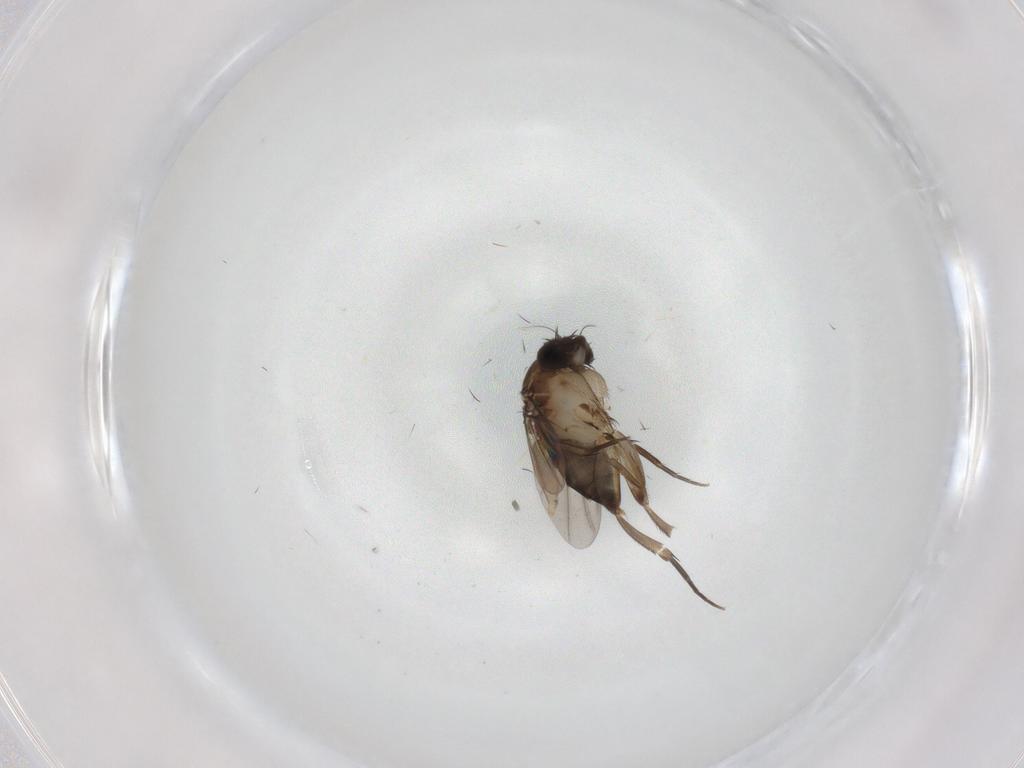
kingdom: Animalia
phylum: Arthropoda
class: Insecta
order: Diptera
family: Phoridae
